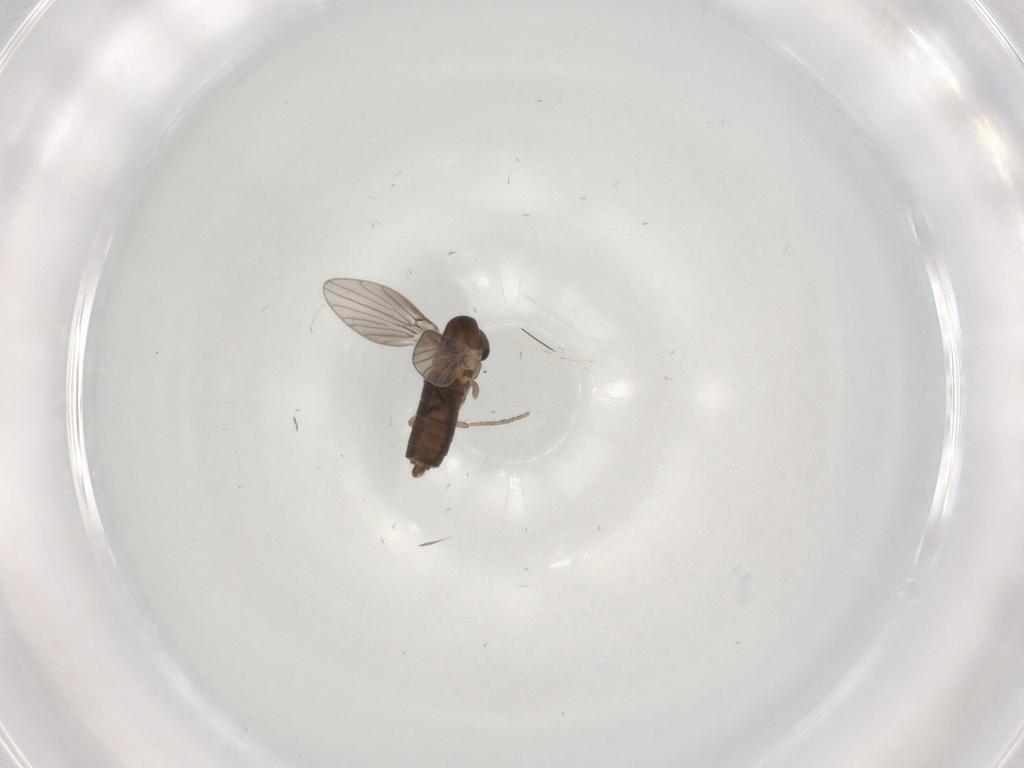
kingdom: Animalia
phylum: Arthropoda
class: Insecta
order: Diptera
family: Psychodidae
